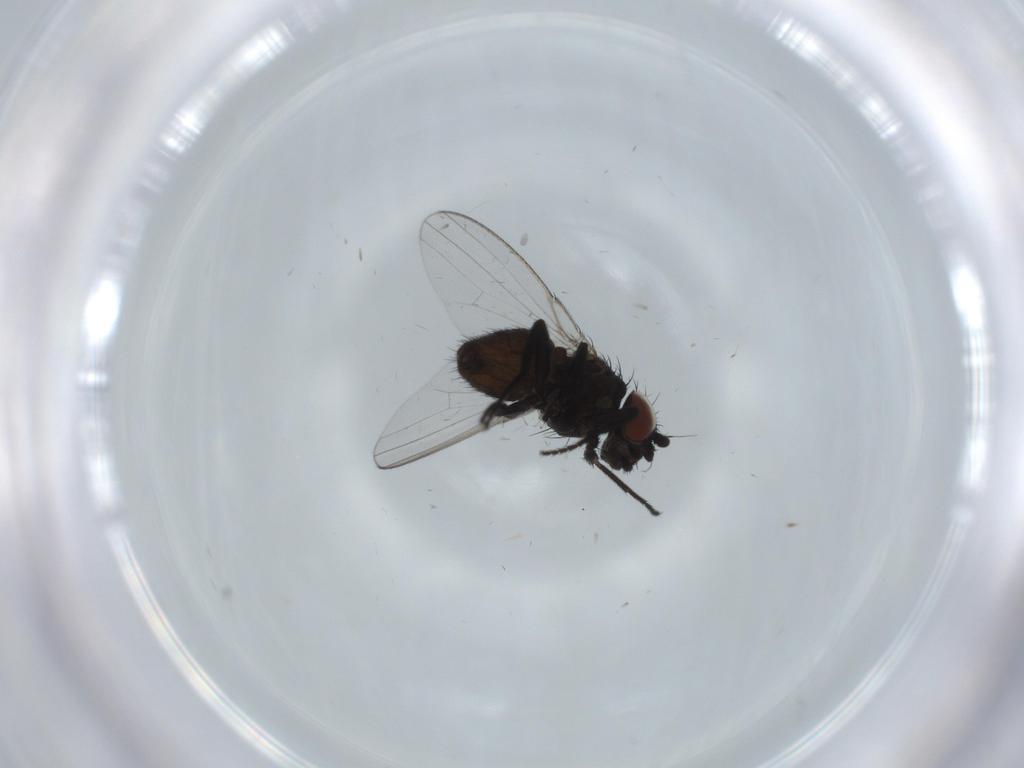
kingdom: Animalia
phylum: Arthropoda
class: Insecta
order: Diptera
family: Milichiidae
